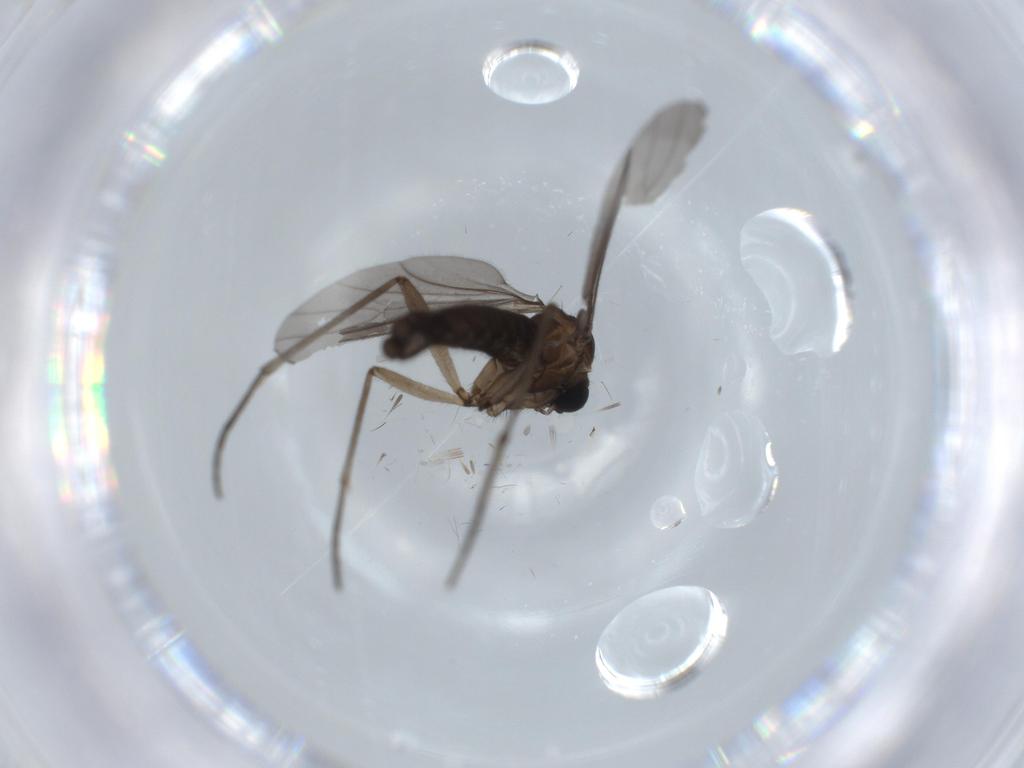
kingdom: Animalia
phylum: Arthropoda
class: Insecta
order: Diptera
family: Sciaridae
